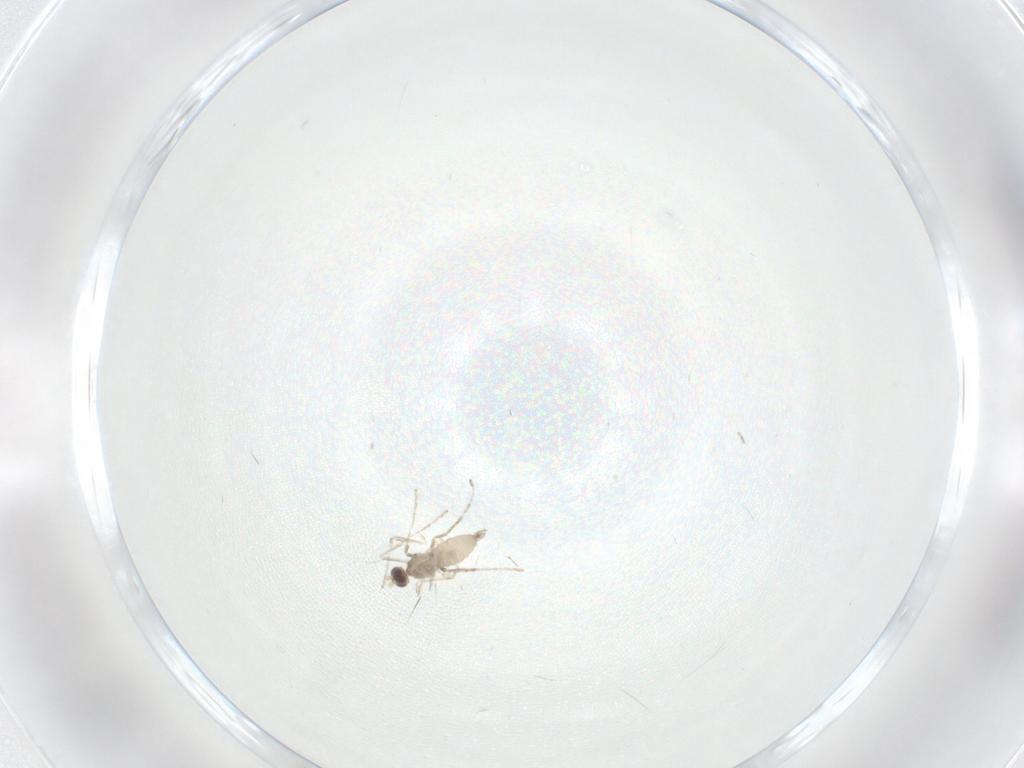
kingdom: Animalia
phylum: Arthropoda
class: Insecta
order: Diptera
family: Cecidomyiidae
